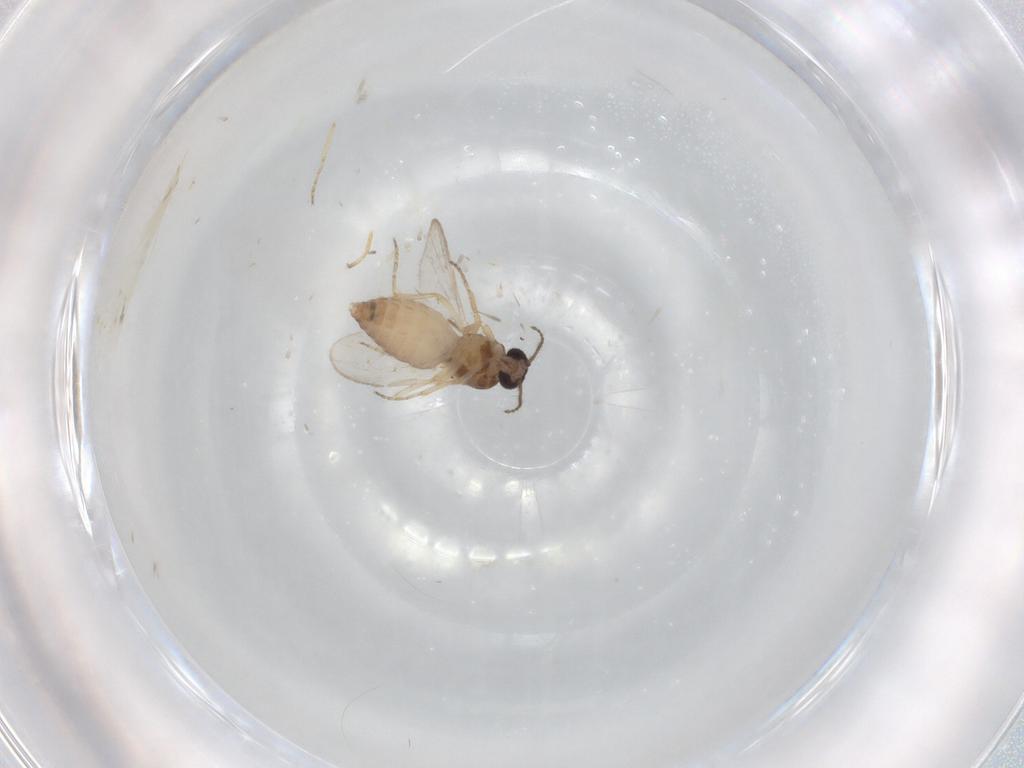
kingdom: Animalia
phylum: Arthropoda
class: Insecta
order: Diptera
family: Ceratopogonidae
